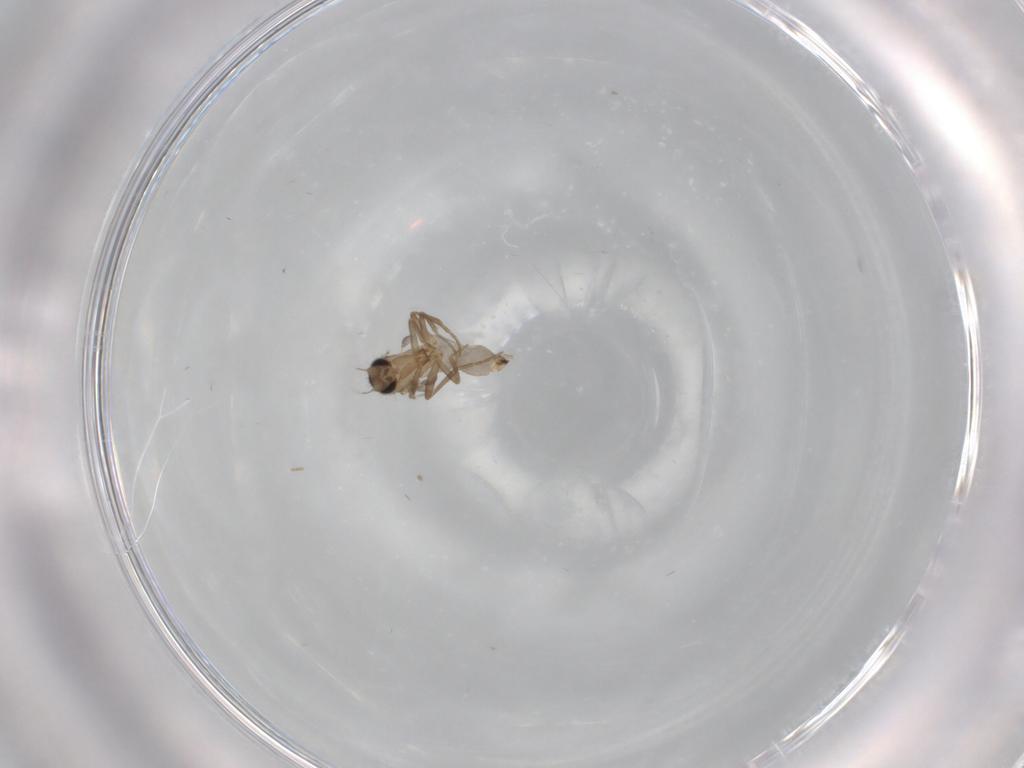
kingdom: Animalia
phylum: Arthropoda
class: Insecta
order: Diptera
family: Psychodidae
